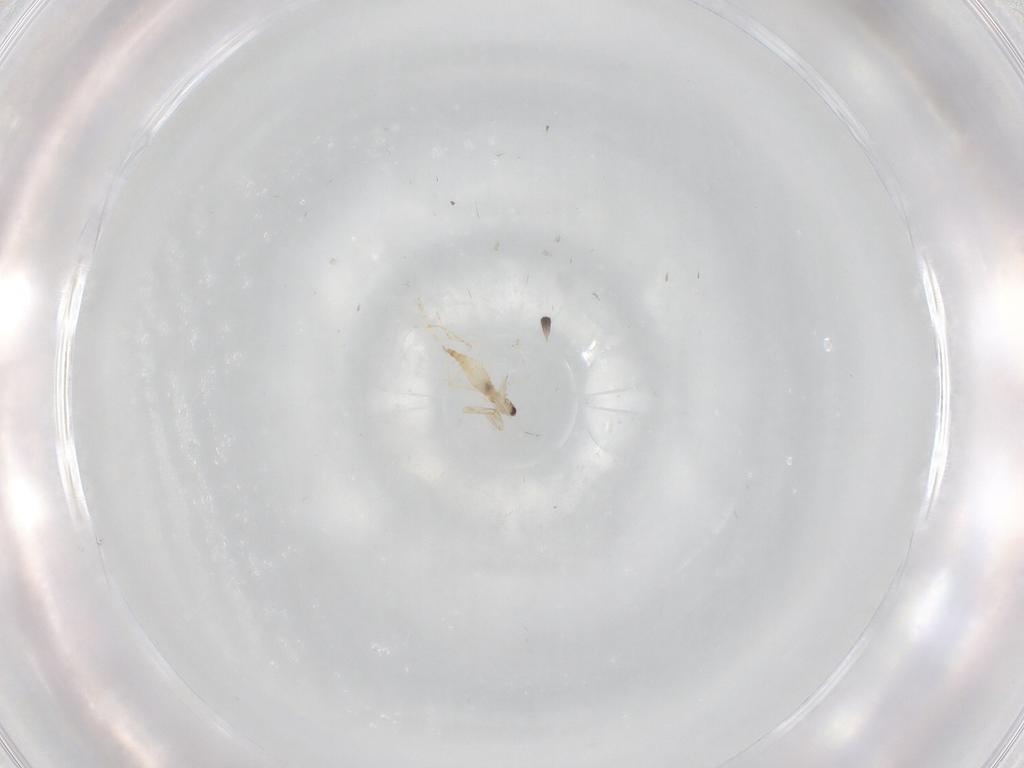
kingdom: Animalia
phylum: Arthropoda
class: Insecta
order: Diptera
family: Cecidomyiidae
